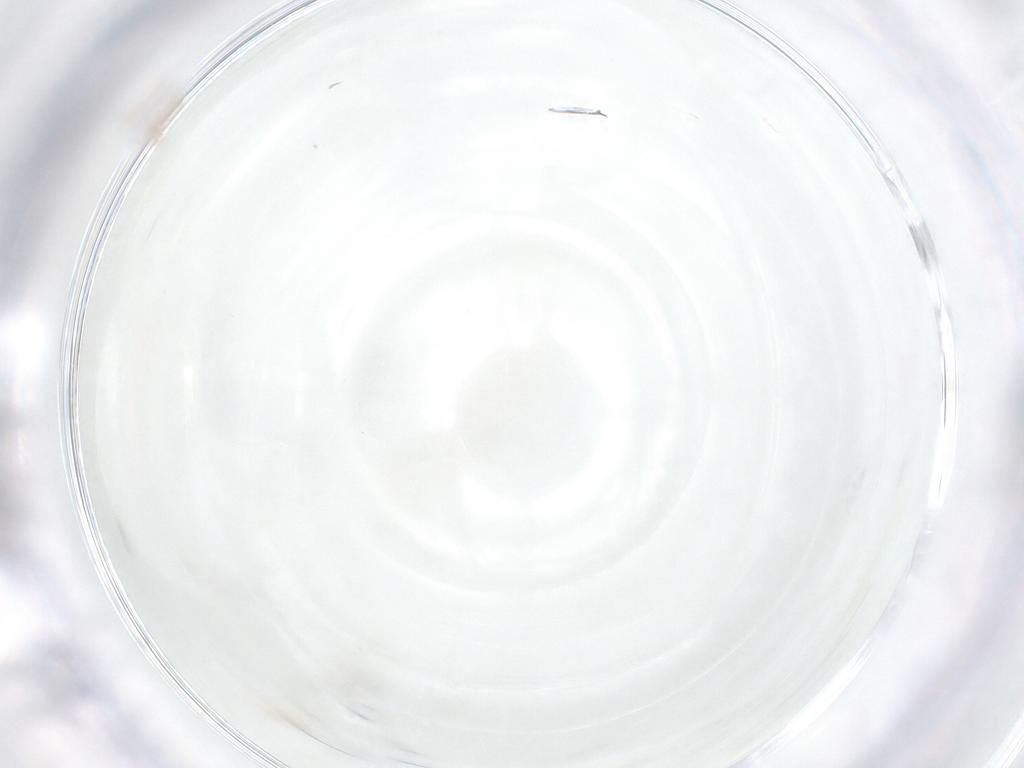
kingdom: Animalia
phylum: Arthropoda
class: Arachnida
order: Mesostigmata
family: Digamasellidae
